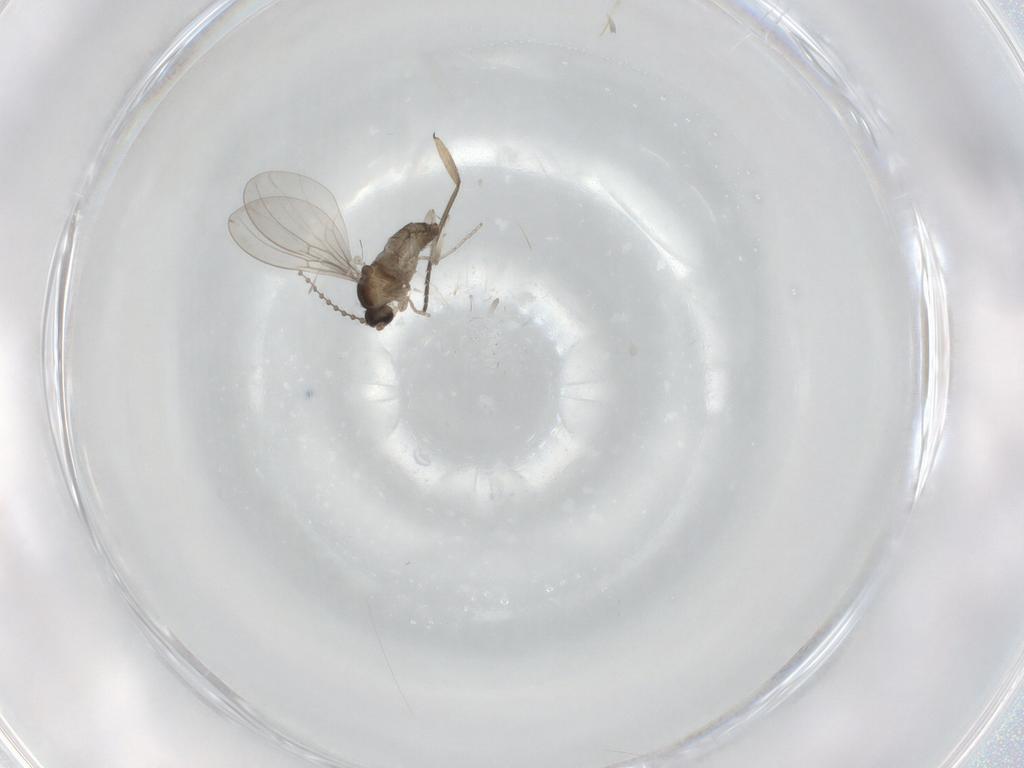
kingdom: Animalia
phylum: Arthropoda
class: Insecta
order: Diptera
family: Sciaridae
